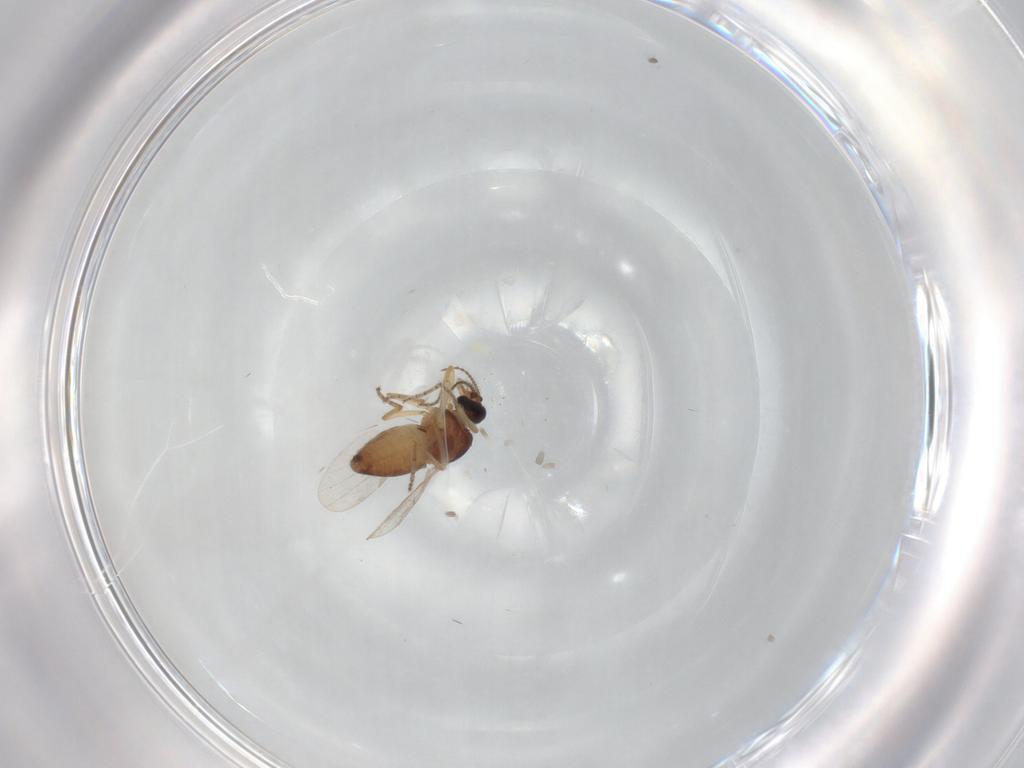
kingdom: Animalia
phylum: Arthropoda
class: Insecta
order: Diptera
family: Ceratopogonidae
